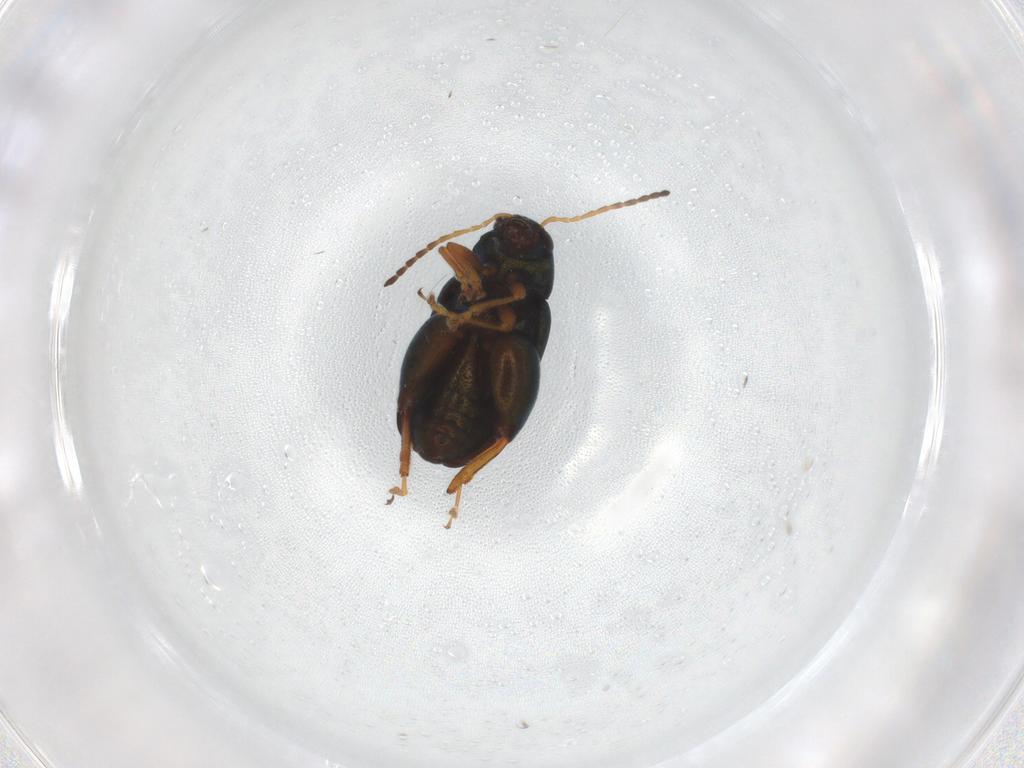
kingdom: Animalia
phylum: Arthropoda
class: Insecta
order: Coleoptera
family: Chrysomelidae
